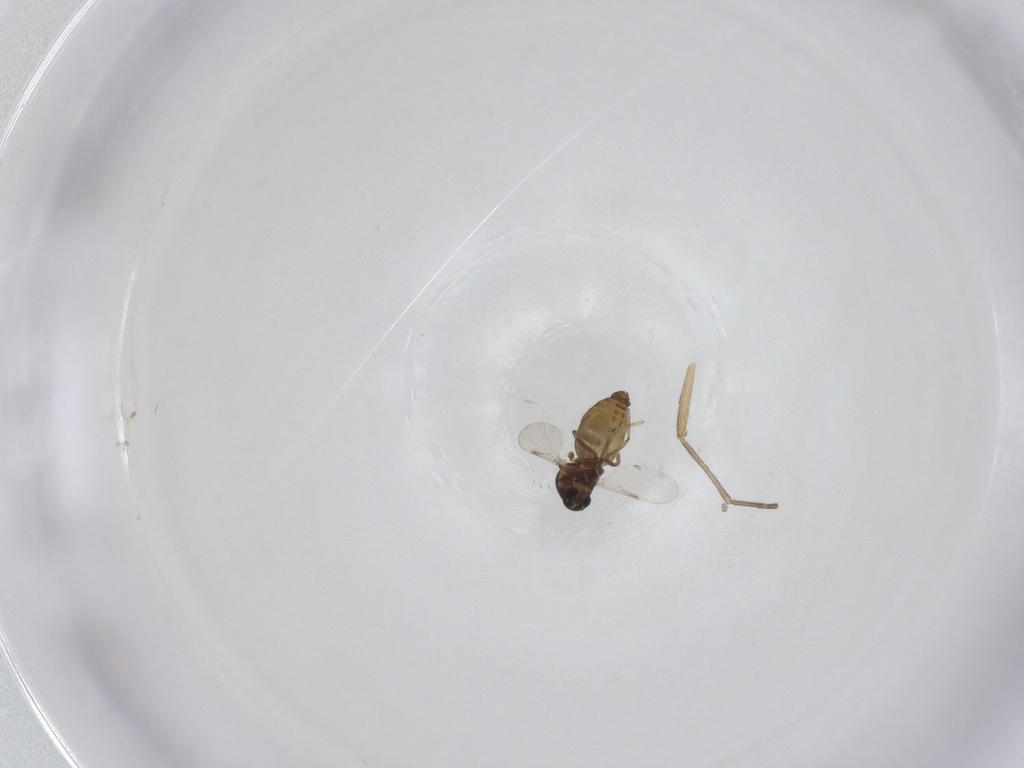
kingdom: Animalia
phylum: Arthropoda
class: Insecta
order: Diptera
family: Ceratopogonidae
